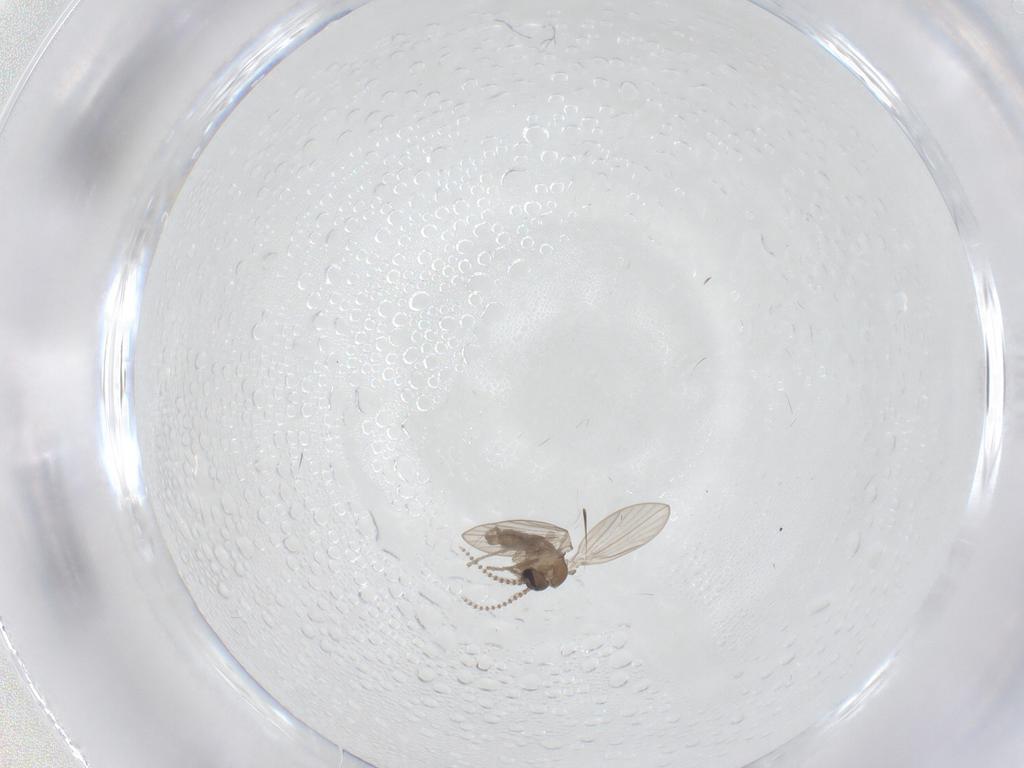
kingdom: Animalia
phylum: Arthropoda
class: Insecta
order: Diptera
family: Psychodidae
